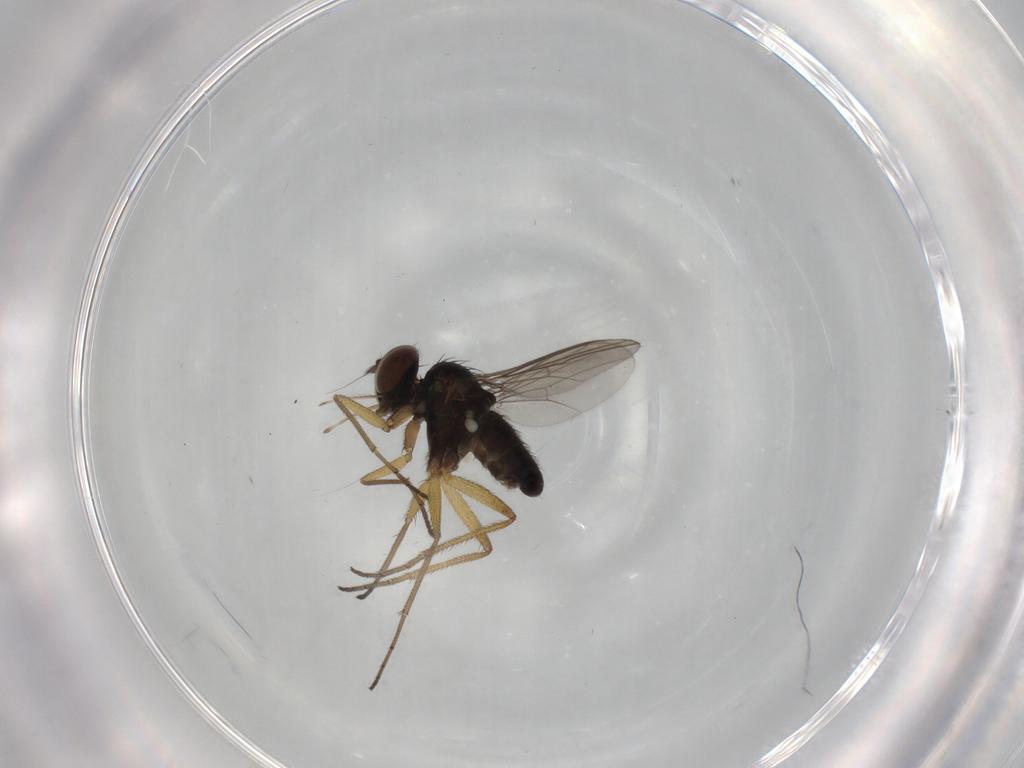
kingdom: Animalia
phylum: Arthropoda
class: Insecta
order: Diptera
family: Dolichopodidae
